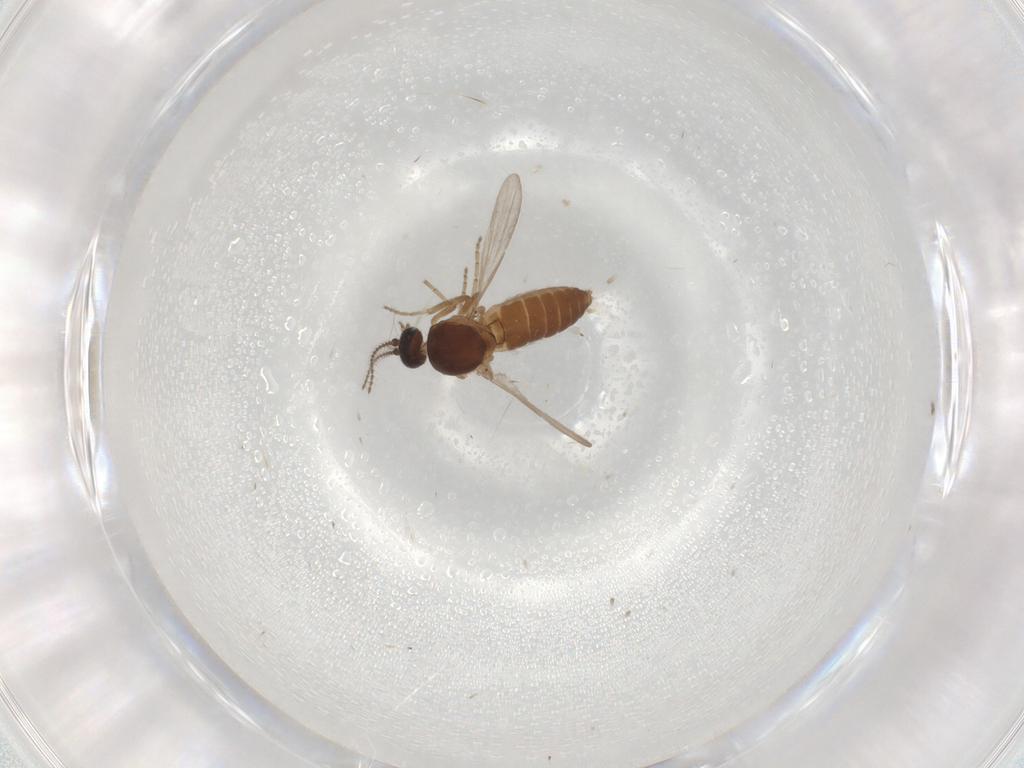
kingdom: Animalia
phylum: Arthropoda
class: Insecta
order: Diptera
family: Ceratopogonidae
